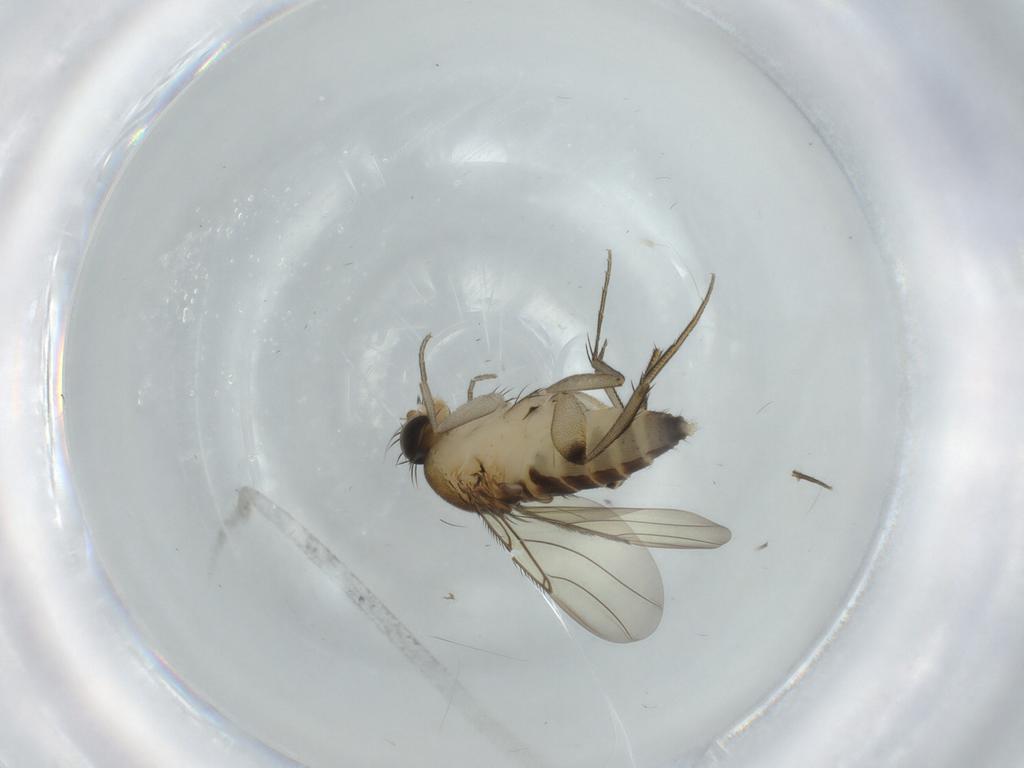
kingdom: Animalia
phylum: Arthropoda
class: Insecta
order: Diptera
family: Phoridae
